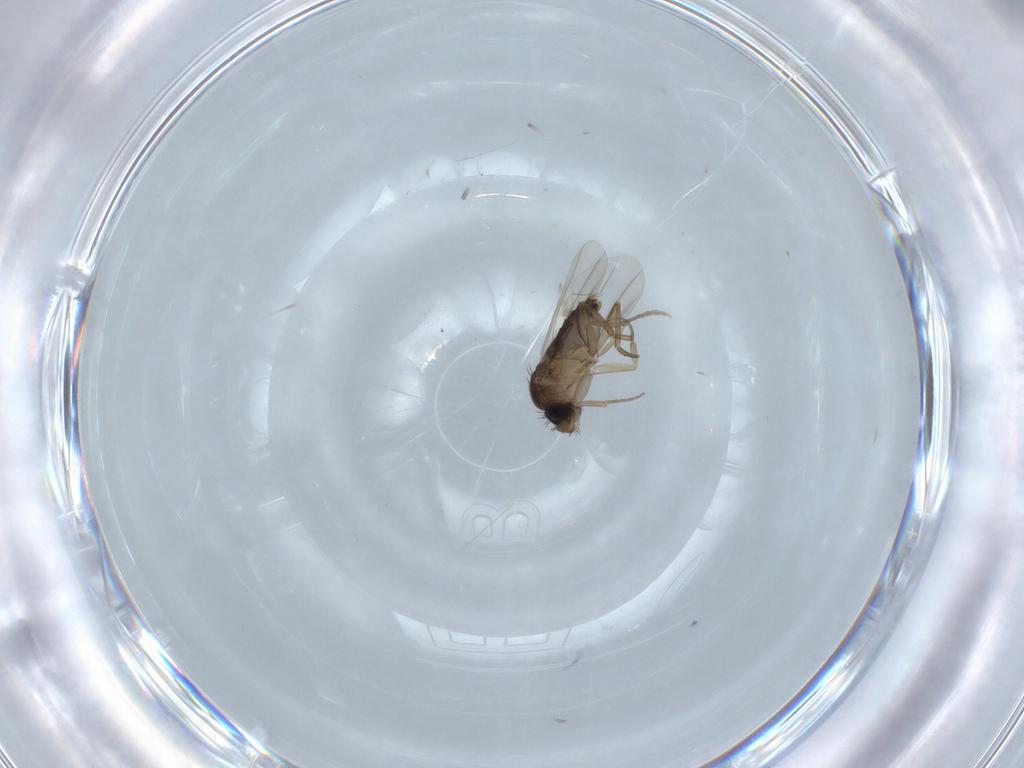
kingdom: Animalia
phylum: Arthropoda
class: Insecta
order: Diptera
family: Phoridae
